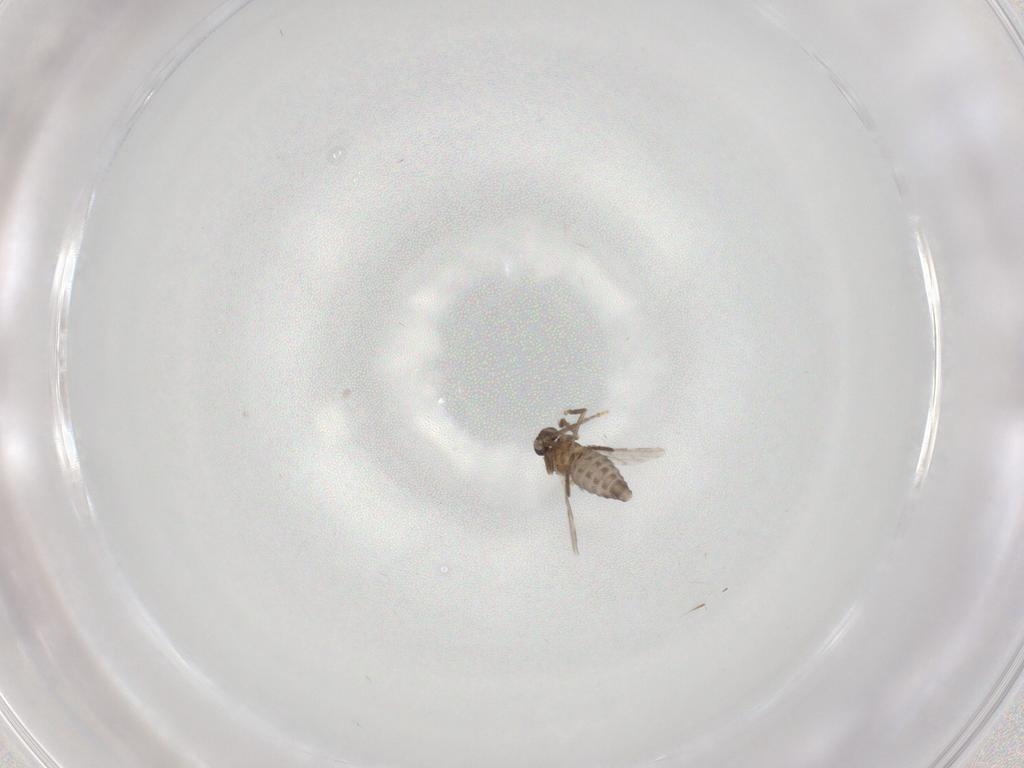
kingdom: Animalia
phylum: Arthropoda
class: Insecta
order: Diptera
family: Ceratopogonidae
